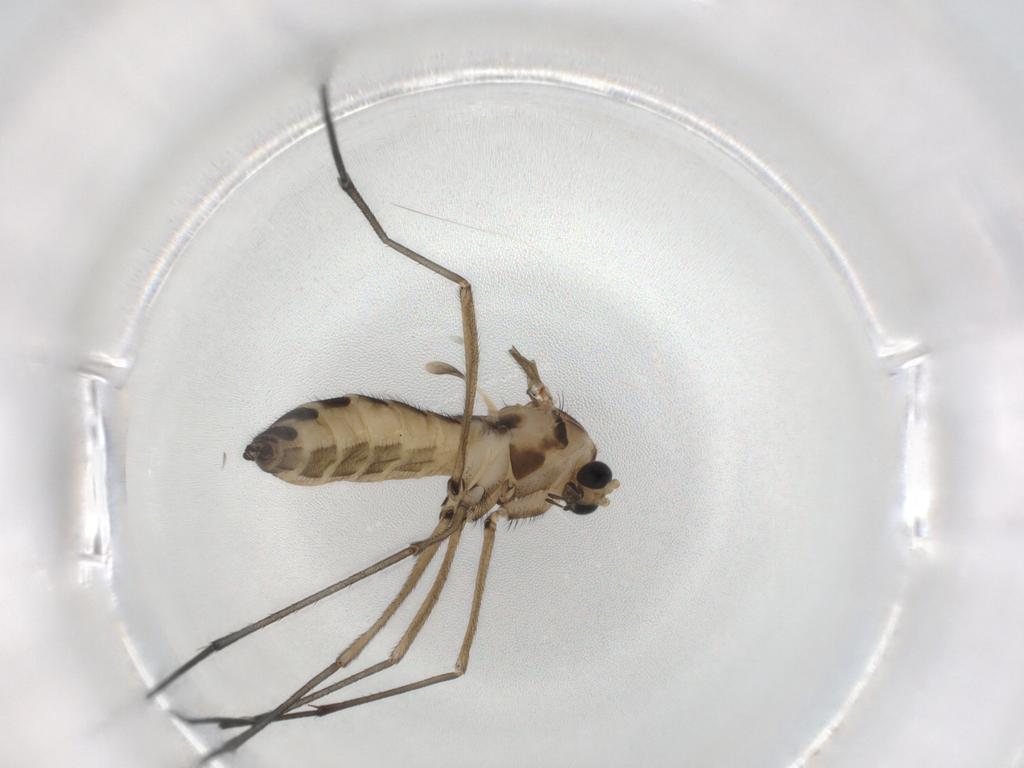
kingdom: Animalia
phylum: Arthropoda
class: Insecta
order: Diptera
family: Sciaridae
